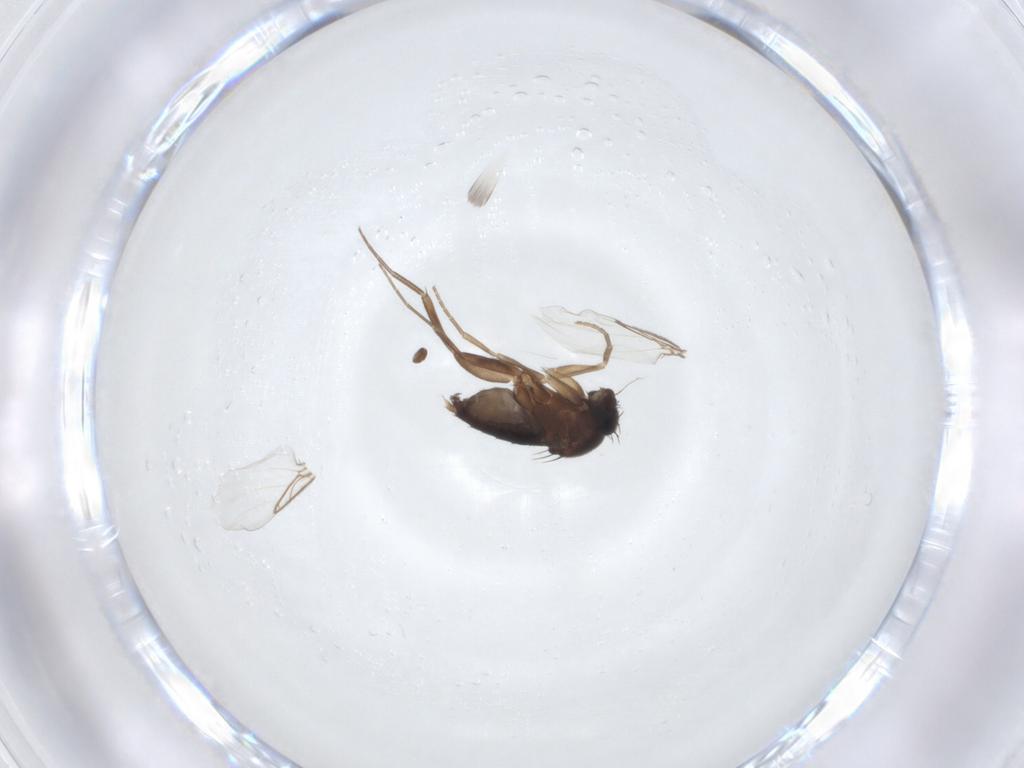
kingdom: Animalia
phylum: Arthropoda
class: Insecta
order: Diptera
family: Phoridae
